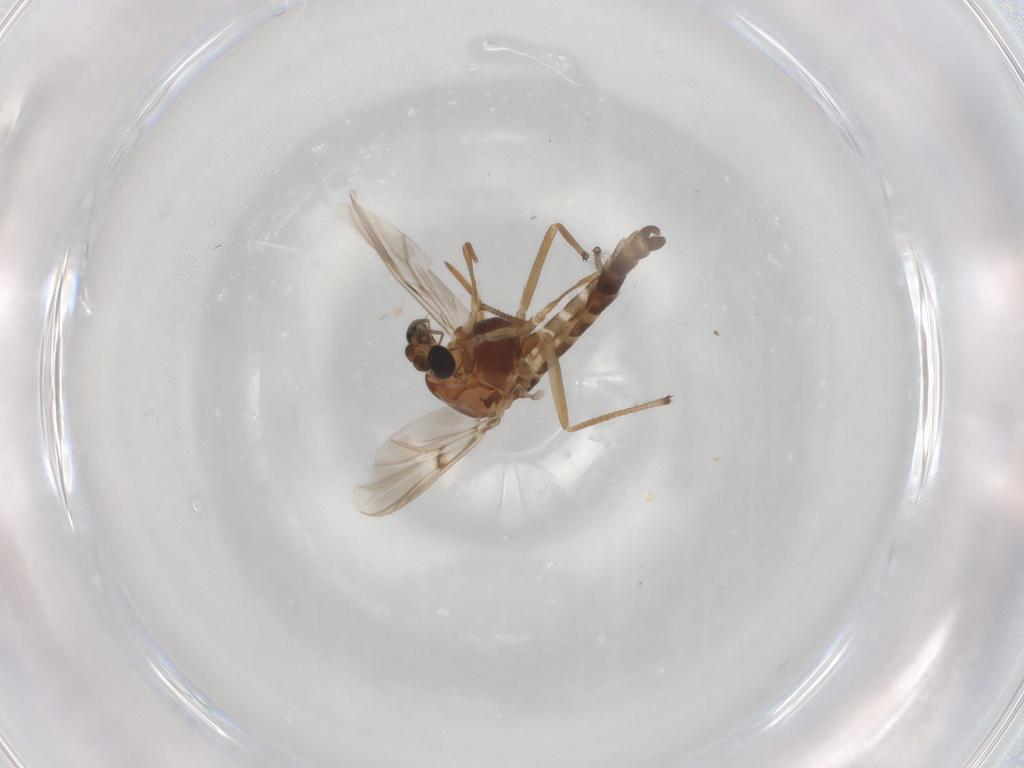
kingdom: Animalia
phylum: Arthropoda
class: Insecta
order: Diptera
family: Chironomidae
